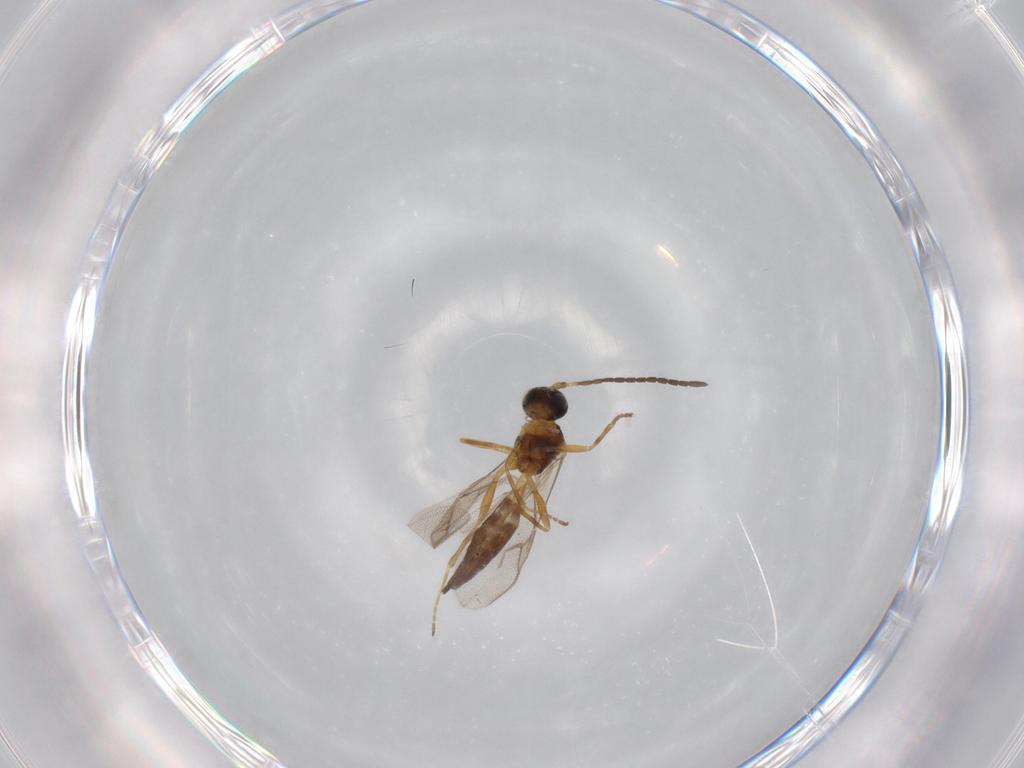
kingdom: Animalia
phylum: Arthropoda
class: Insecta
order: Hymenoptera
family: Braconidae
